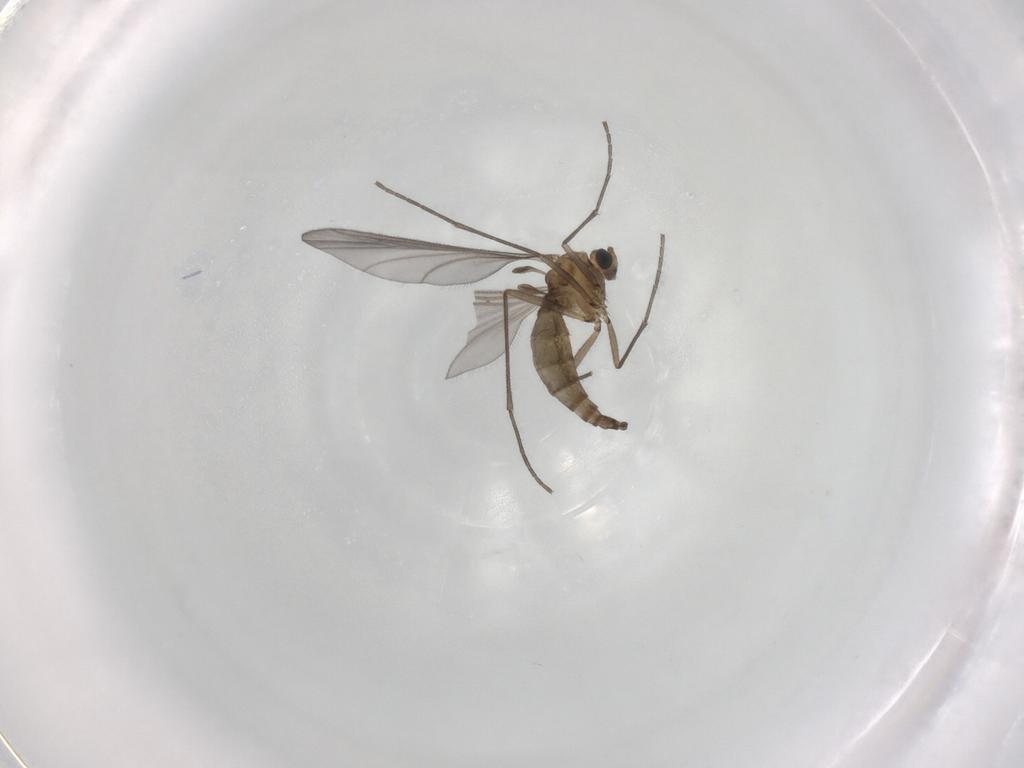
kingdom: Animalia
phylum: Arthropoda
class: Insecta
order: Diptera
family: Sciaridae
